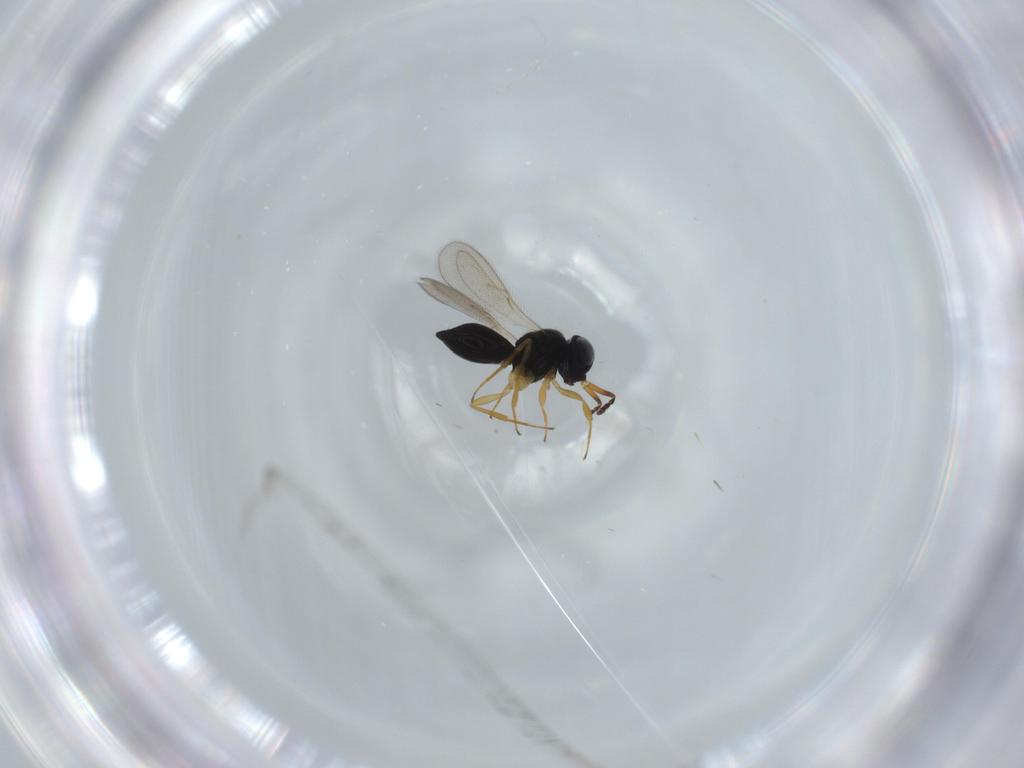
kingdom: Animalia
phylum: Arthropoda
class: Insecta
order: Hymenoptera
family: Scelionidae
